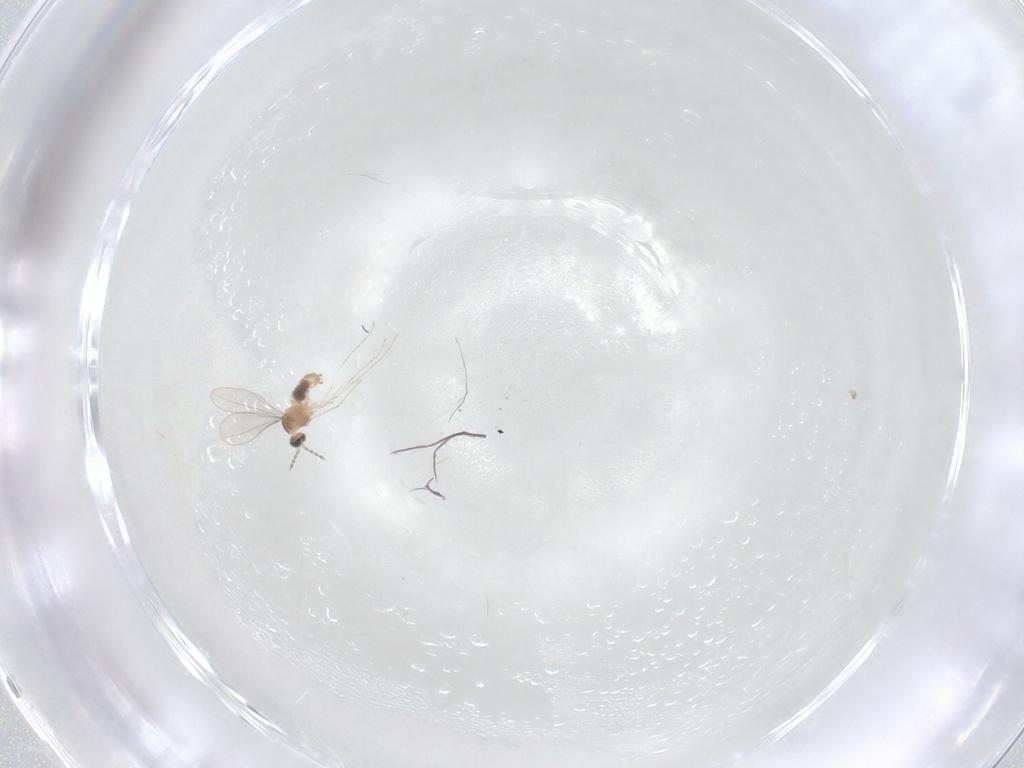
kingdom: Animalia
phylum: Arthropoda
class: Insecta
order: Diptera
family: Cecidomyiidae
